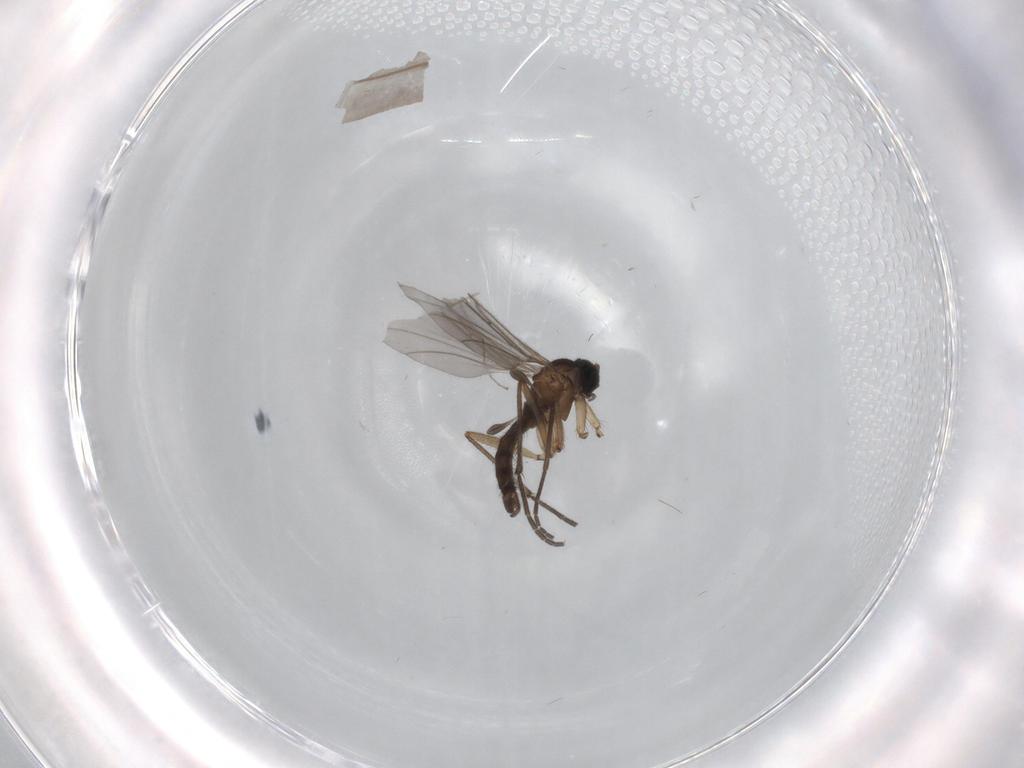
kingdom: Animalia
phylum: Arthropoda
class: Insecta
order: Diptera
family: Sciaridae
